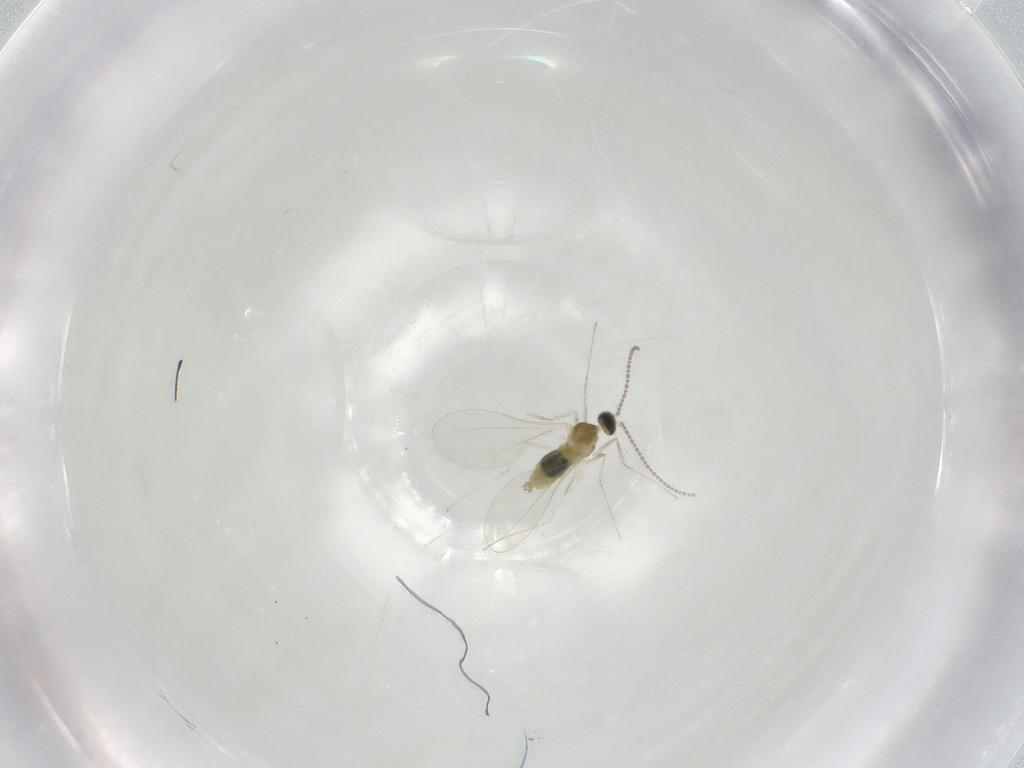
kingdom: Animalia
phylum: Arthropoda
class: Insecta
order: Diptera
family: Cecidomyiidae
